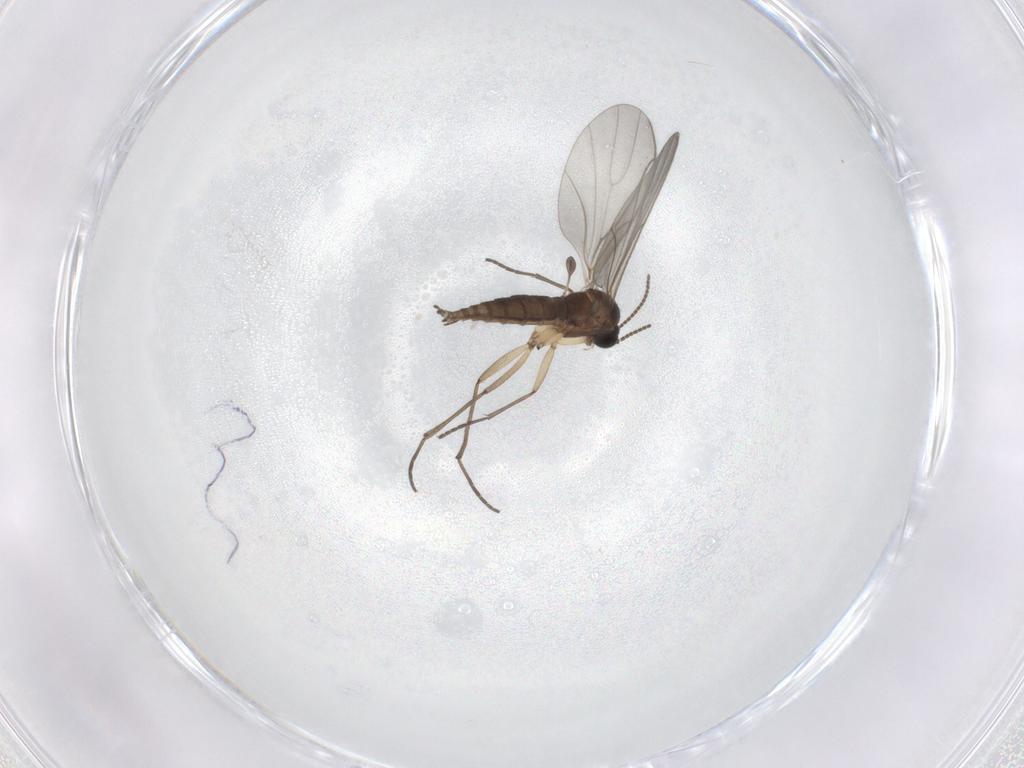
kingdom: Animalia
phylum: Arthropoda
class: Insecta
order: Diptera
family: Sciaridae
